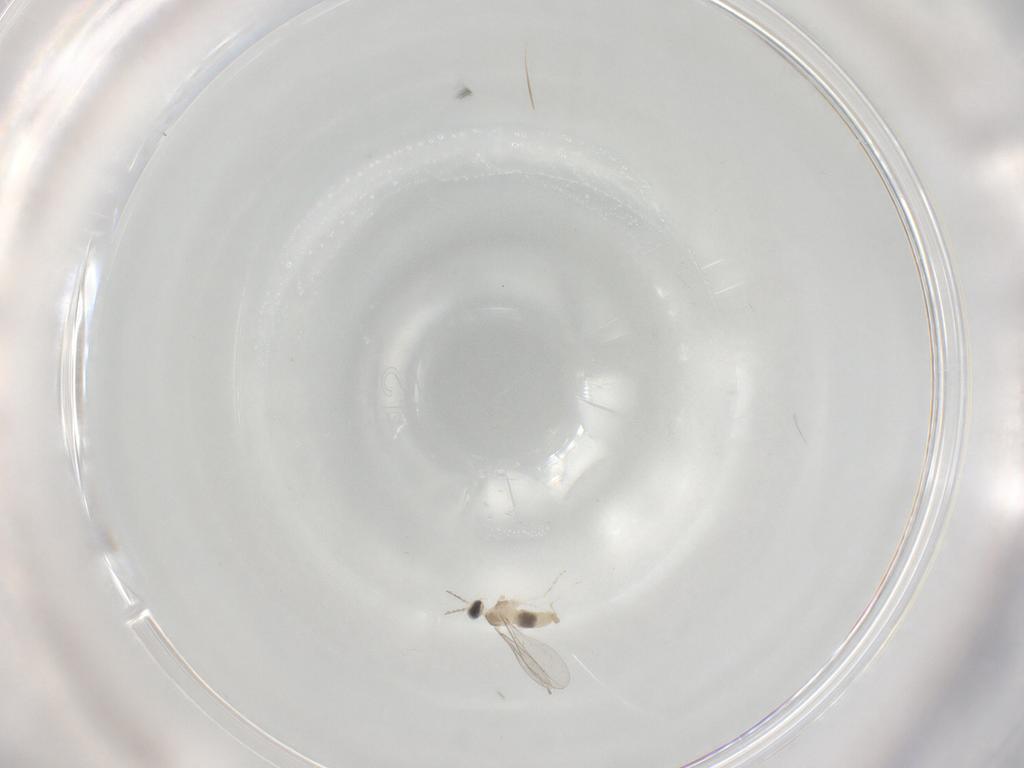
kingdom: Animalia
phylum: Arthropoda
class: Insecta
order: Diptera
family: Cecidomyiidae
